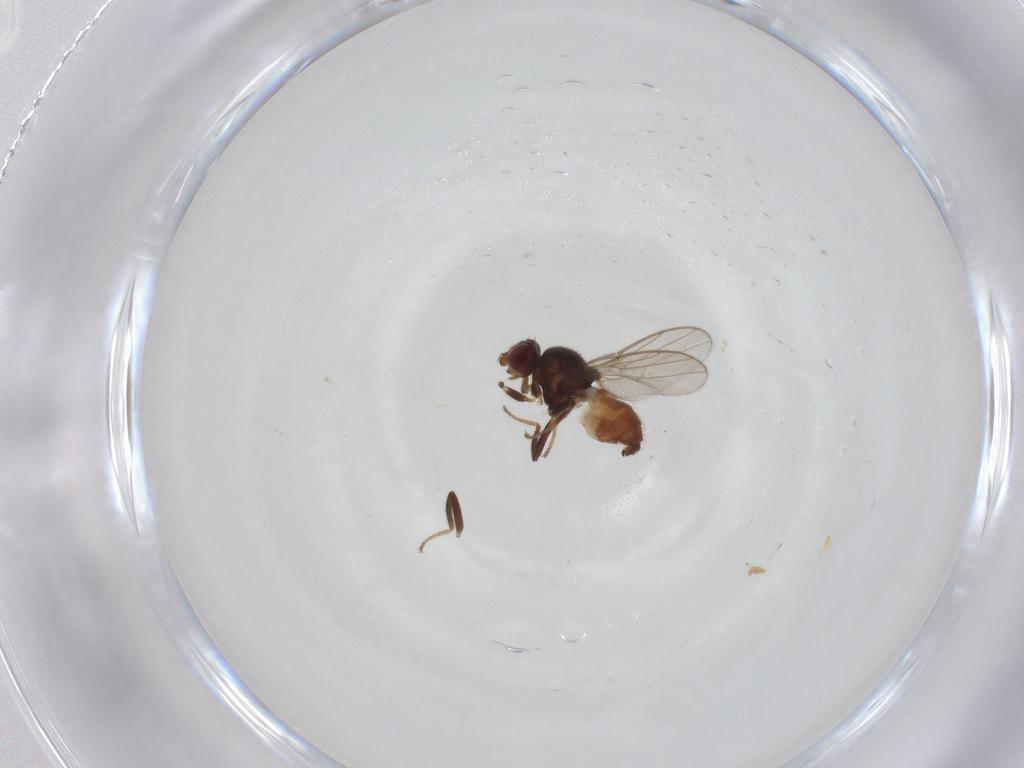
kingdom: Animalia
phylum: Arthropoda
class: Insecta
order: Diptera
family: Chloropidae
